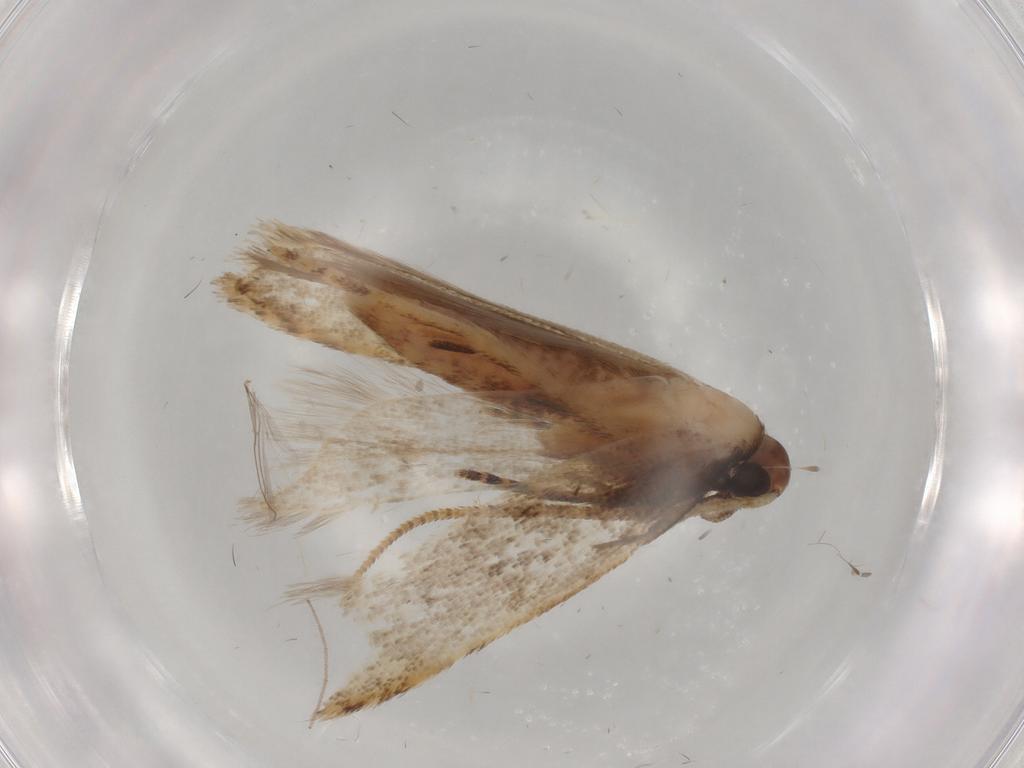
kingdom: Animalia
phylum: Arthropoda
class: Insecta
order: Lepidoptera
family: Gelechiidae
